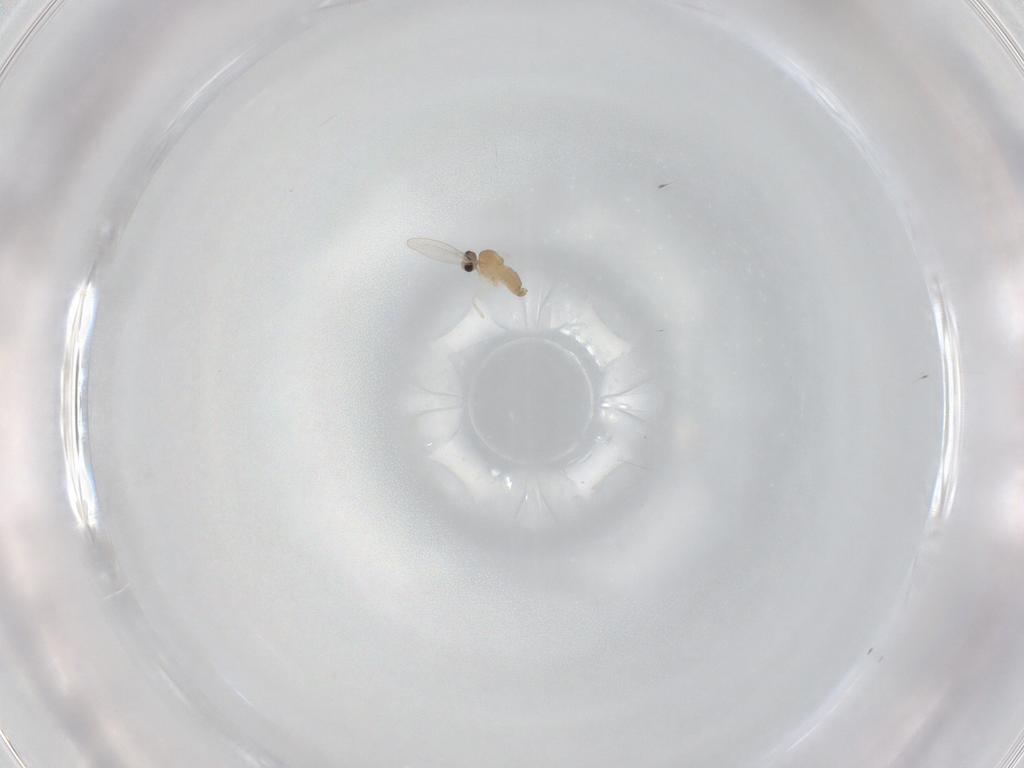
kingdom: Animalia
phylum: Arthropoda
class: Insecta
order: Diptera
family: Cecidomyiidae
